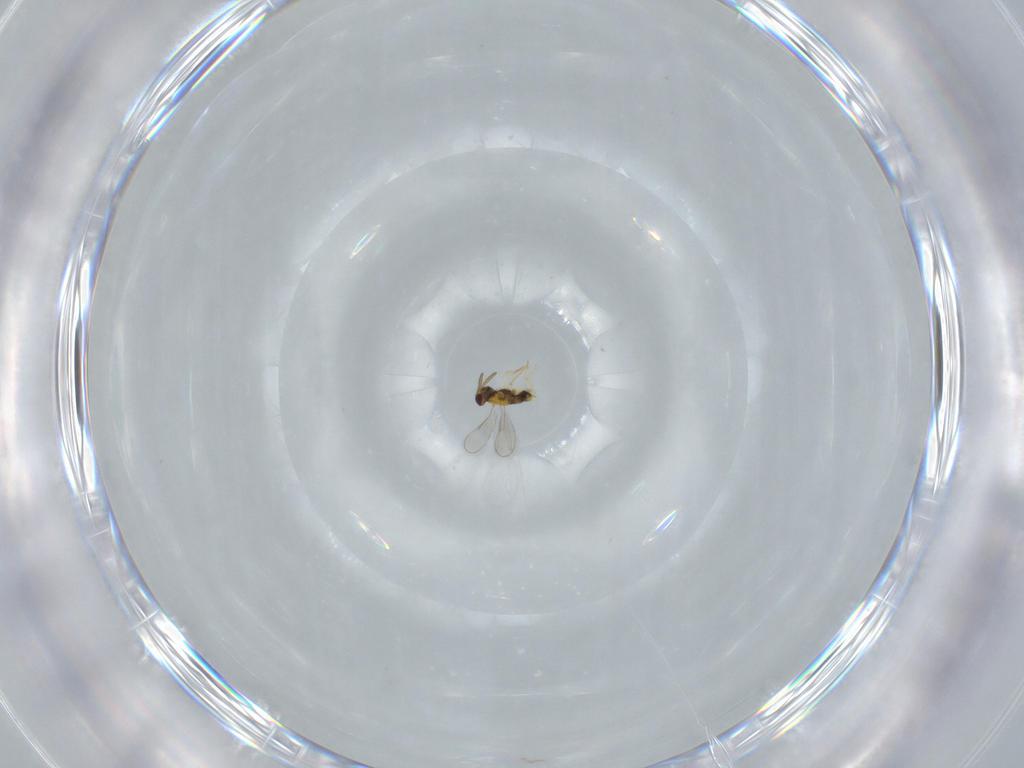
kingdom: Animalia
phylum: Arthropoda
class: Insecta
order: Hymenoptera
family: Aphelinidae
